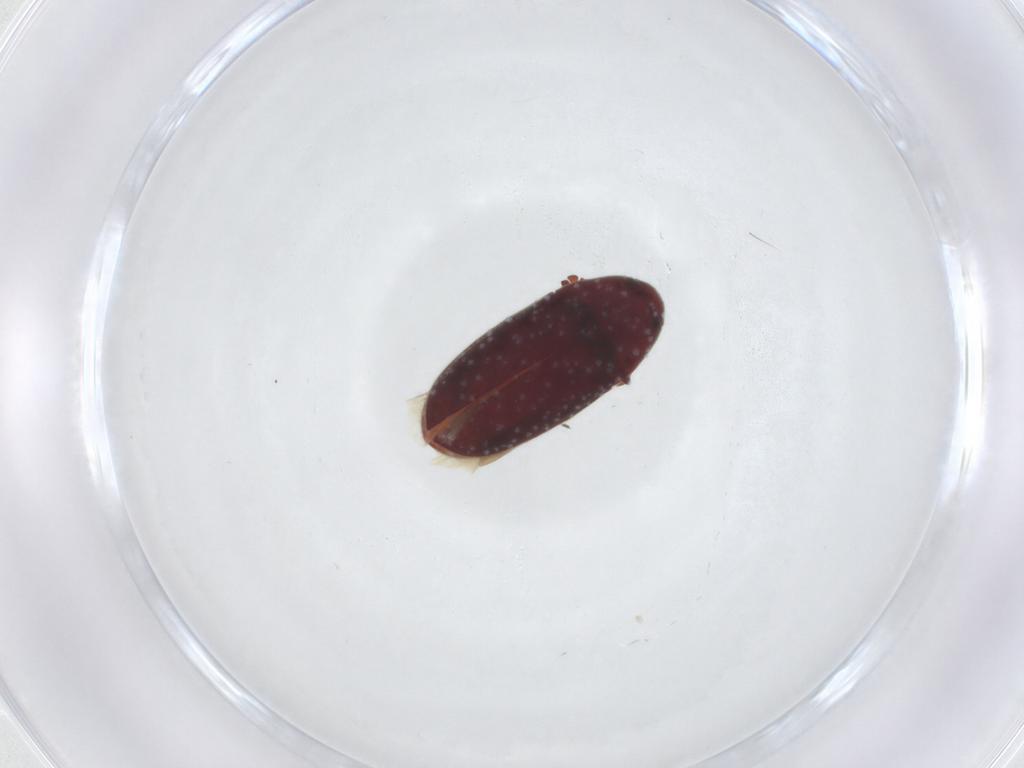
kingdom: Animalia
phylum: Arthropoda
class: Insecta
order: Coleoptera
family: Throscidae
